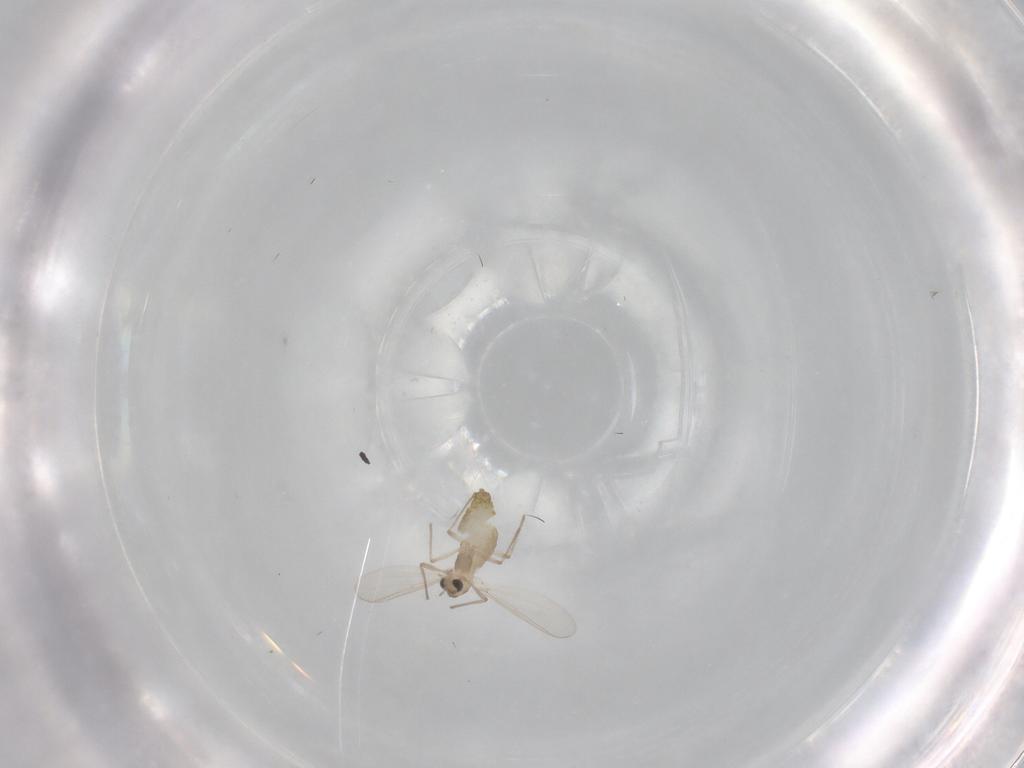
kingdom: Animalia
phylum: Arthropoda
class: Insecta
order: Diptera
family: Chironomidae
